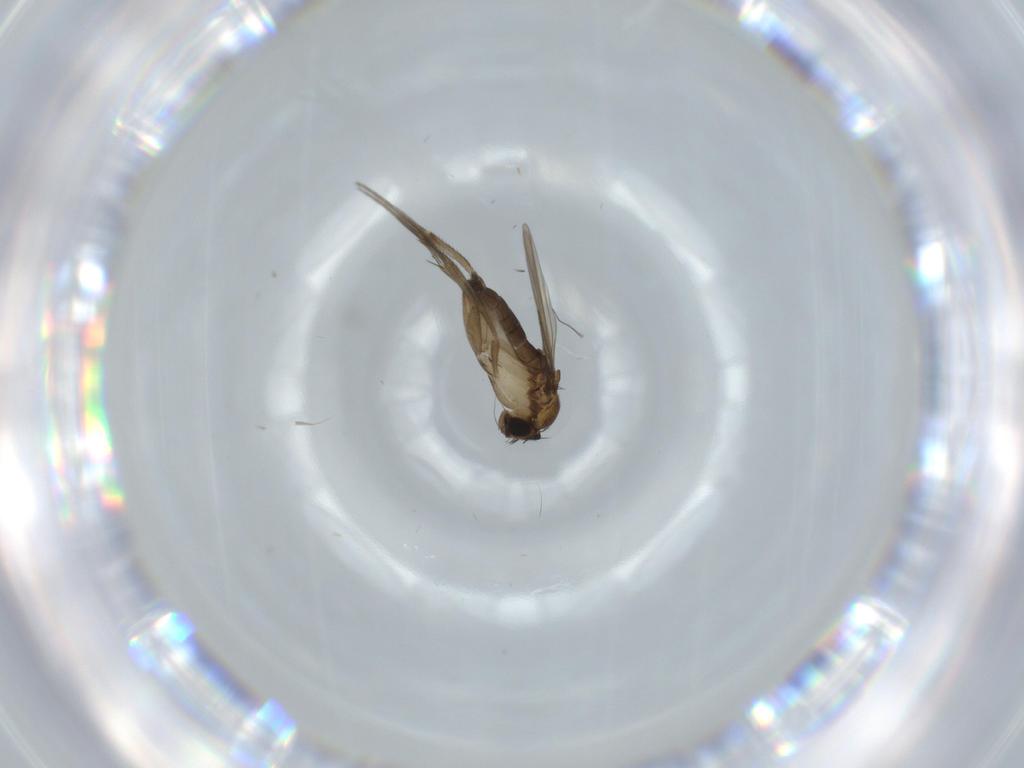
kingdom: Animalia
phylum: Arthropoda
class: Insecta
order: Diptera
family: Phoridae
